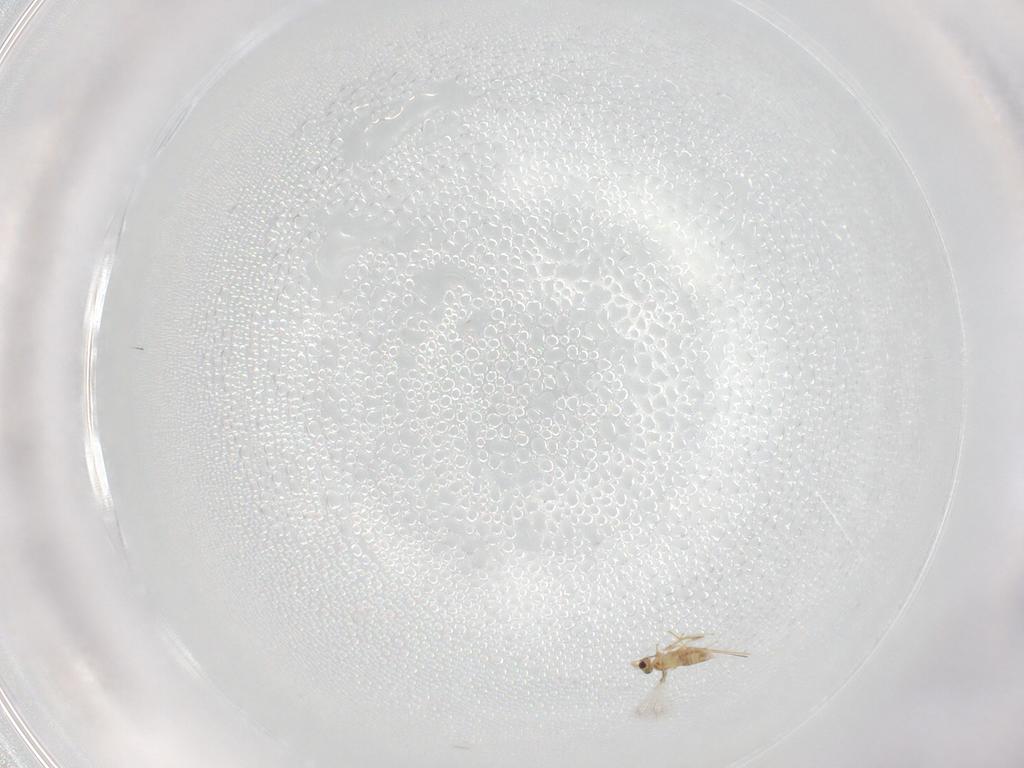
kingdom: Animalia
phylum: Arthropoda
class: Insecta
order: Hymenoptera
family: Mymaridae
